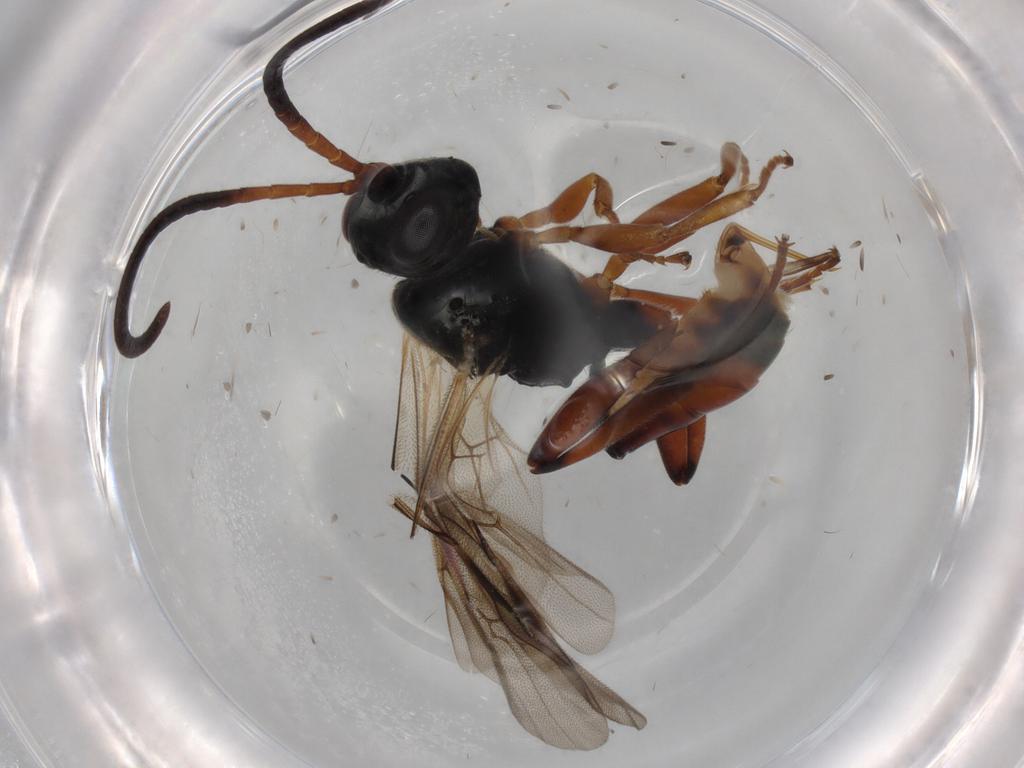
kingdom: Animalia
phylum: Arthropoda
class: Insecta
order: Hymenoptera
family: Ichneumonidae
